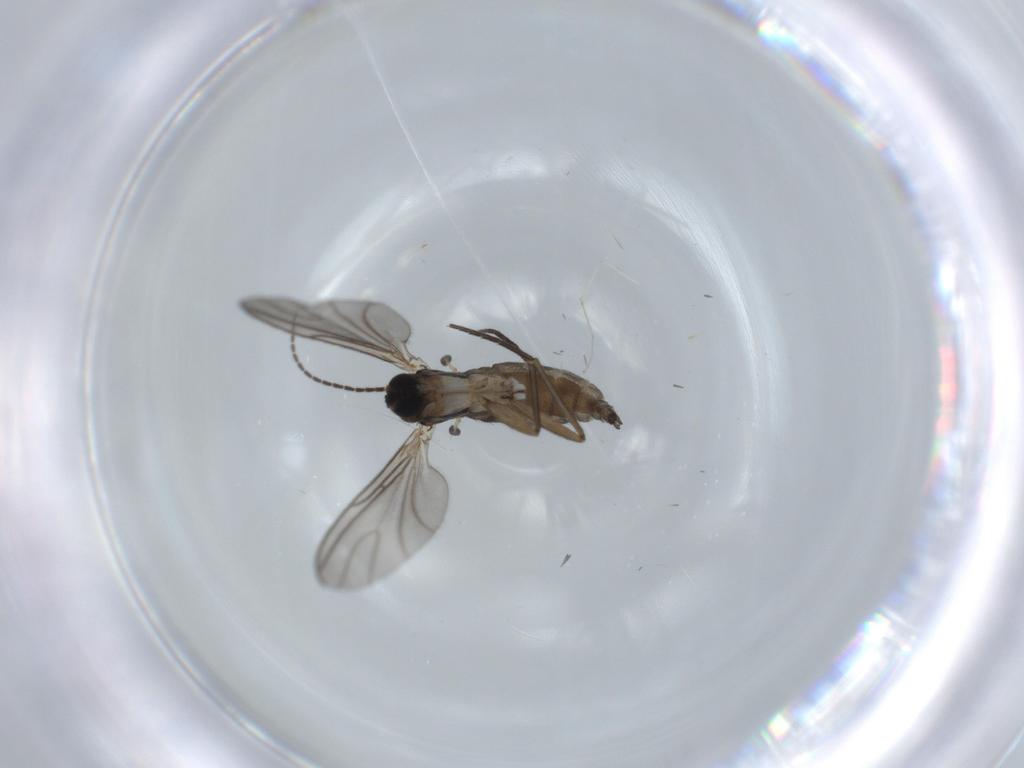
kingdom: Animalia
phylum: Arthropoda
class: Insecta
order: Diptera
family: Sciaridae
